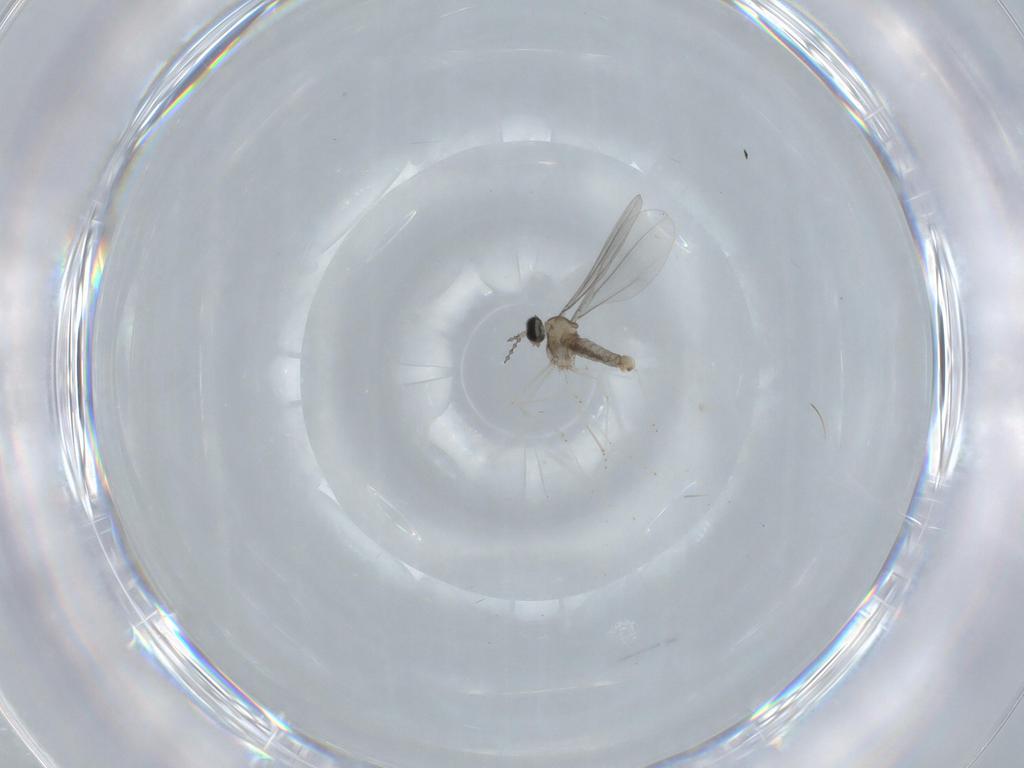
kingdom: Animalia
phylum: Arthropoda
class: Insecta
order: Diptera
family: Cecidomyiidae
